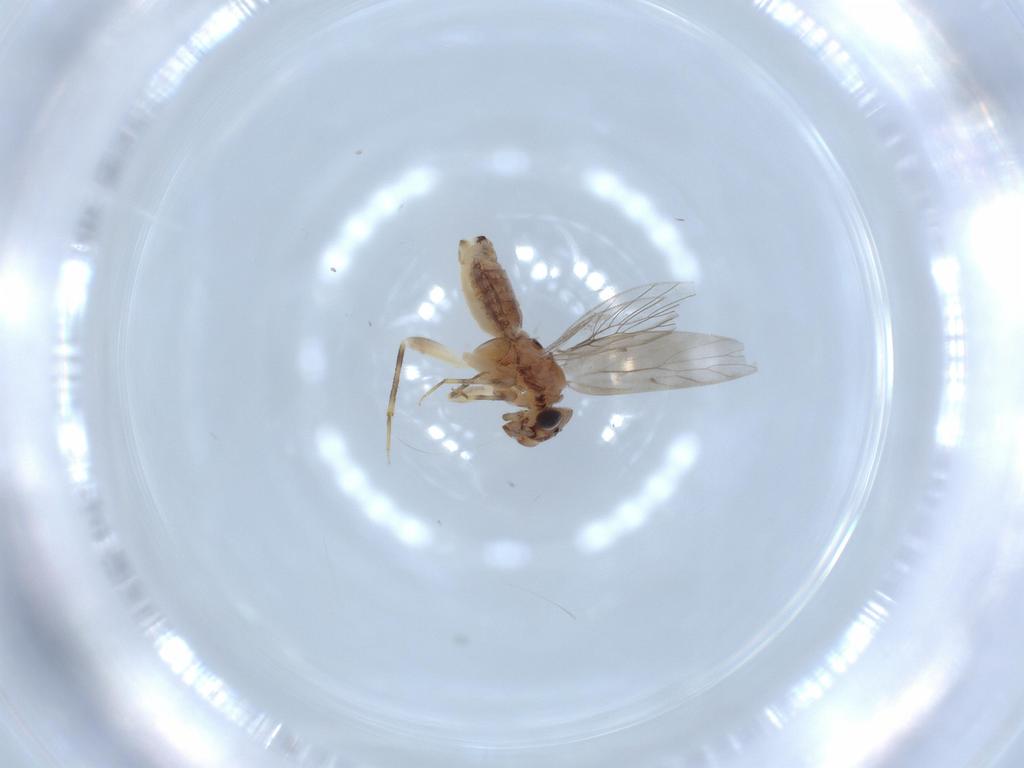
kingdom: Animalia
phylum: Arthropoda
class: Insecta
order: Psocodea
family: Lepidopsocidae
